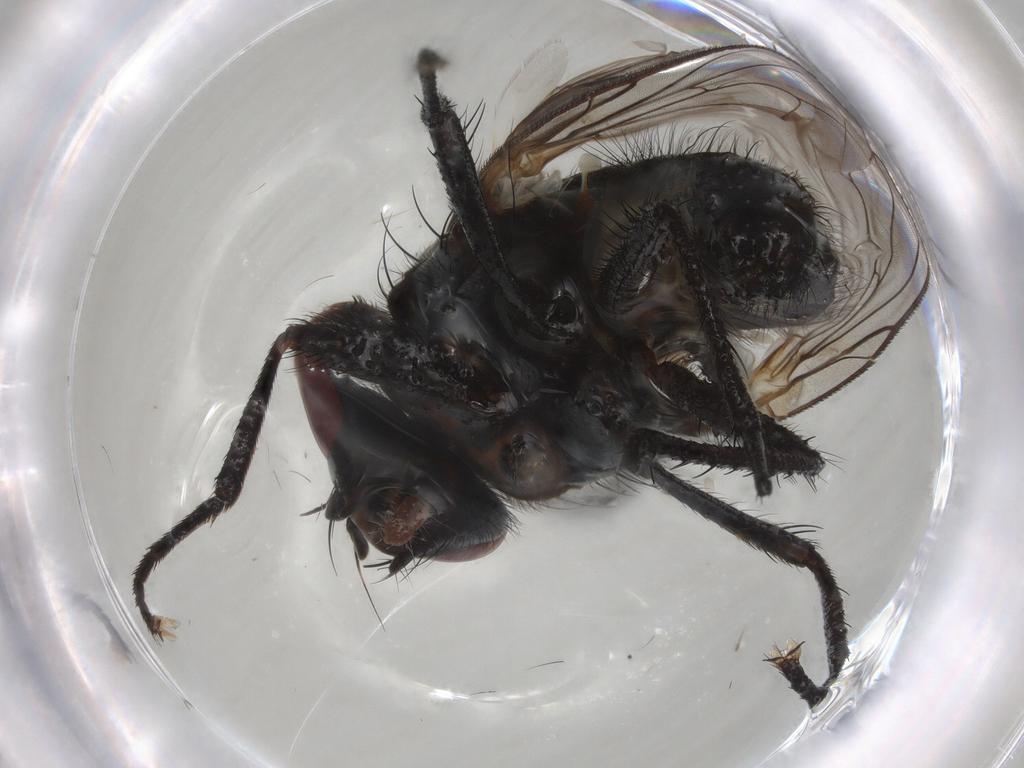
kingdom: Animalia
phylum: Arthropoda
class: Insecta
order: Diptera
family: Anthomyiidae
